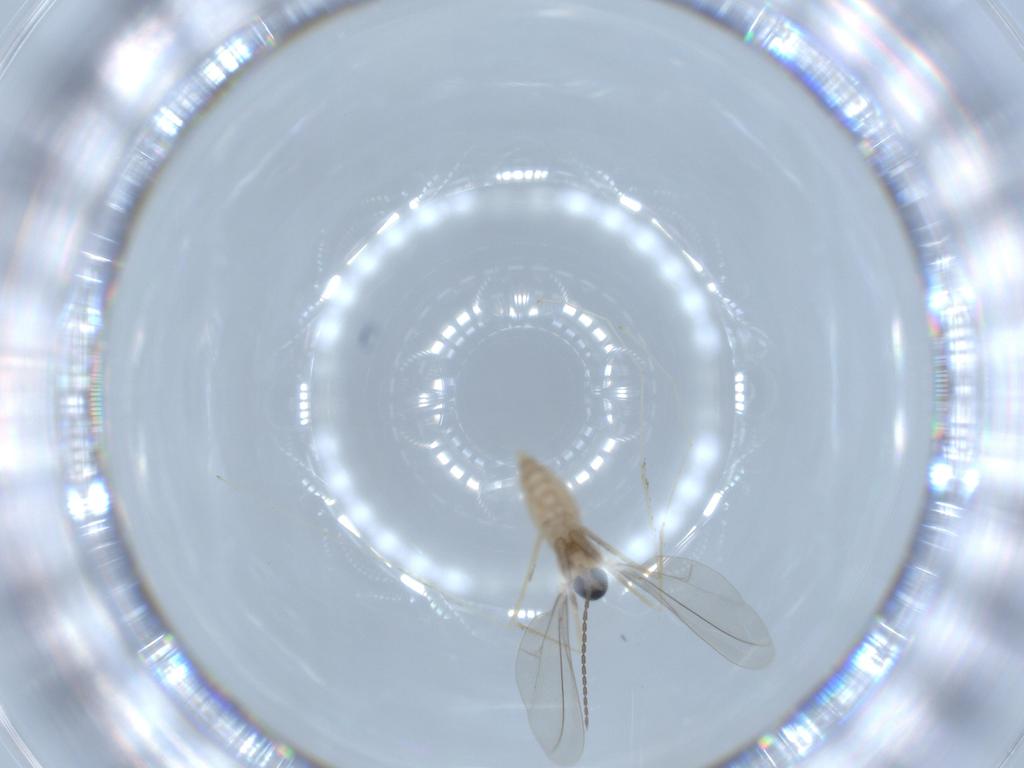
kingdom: Animalia
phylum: Arthropoda
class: Insecta
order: Diptera
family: Cecidomyiidae
